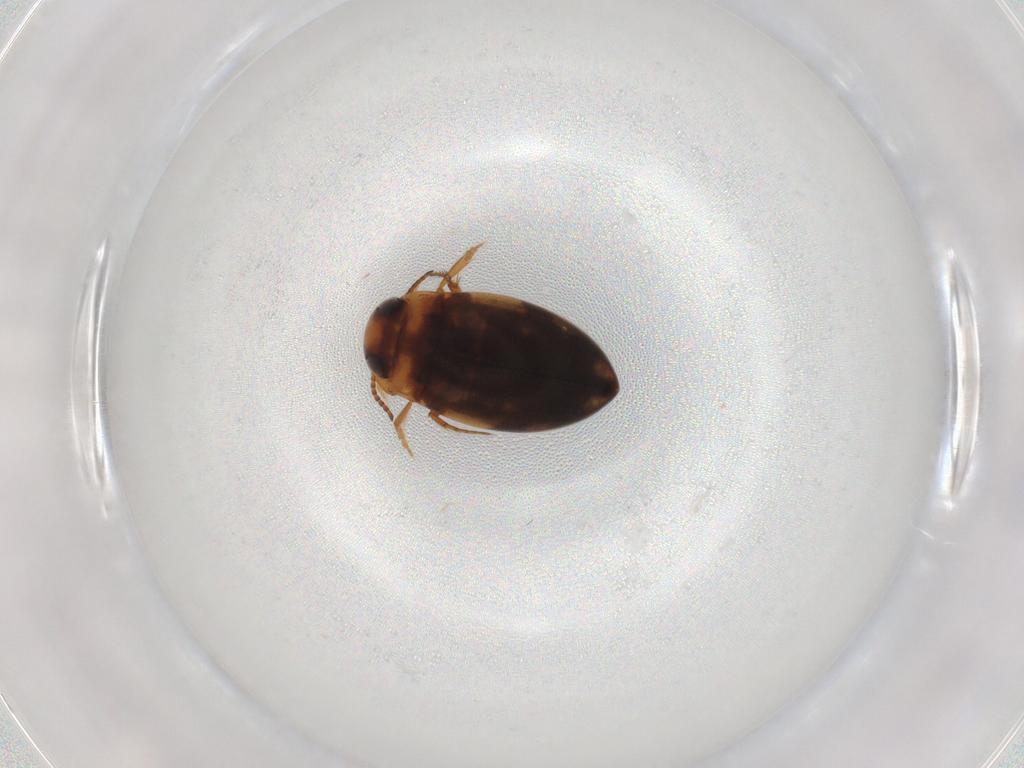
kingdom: Animalia
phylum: Arthropoda
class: Insecta
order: Coleoptera
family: Dytiscidae
